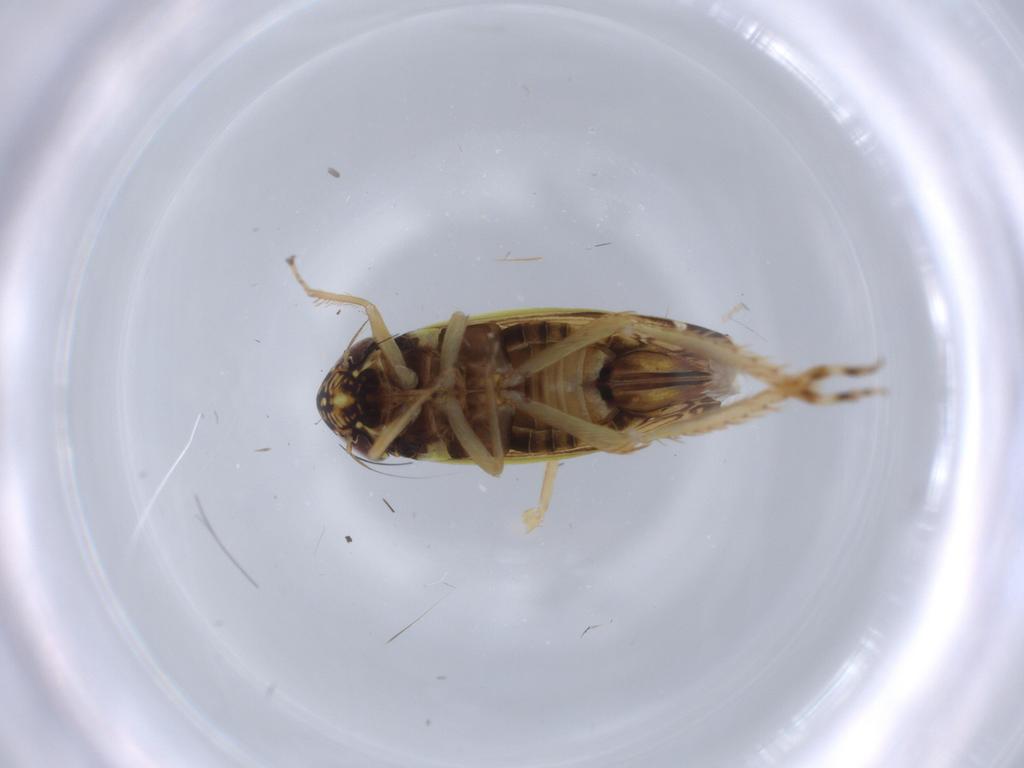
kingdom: Animalia
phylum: Arthropoda
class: Insecta
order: Hemiptera
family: Cicadellidae
